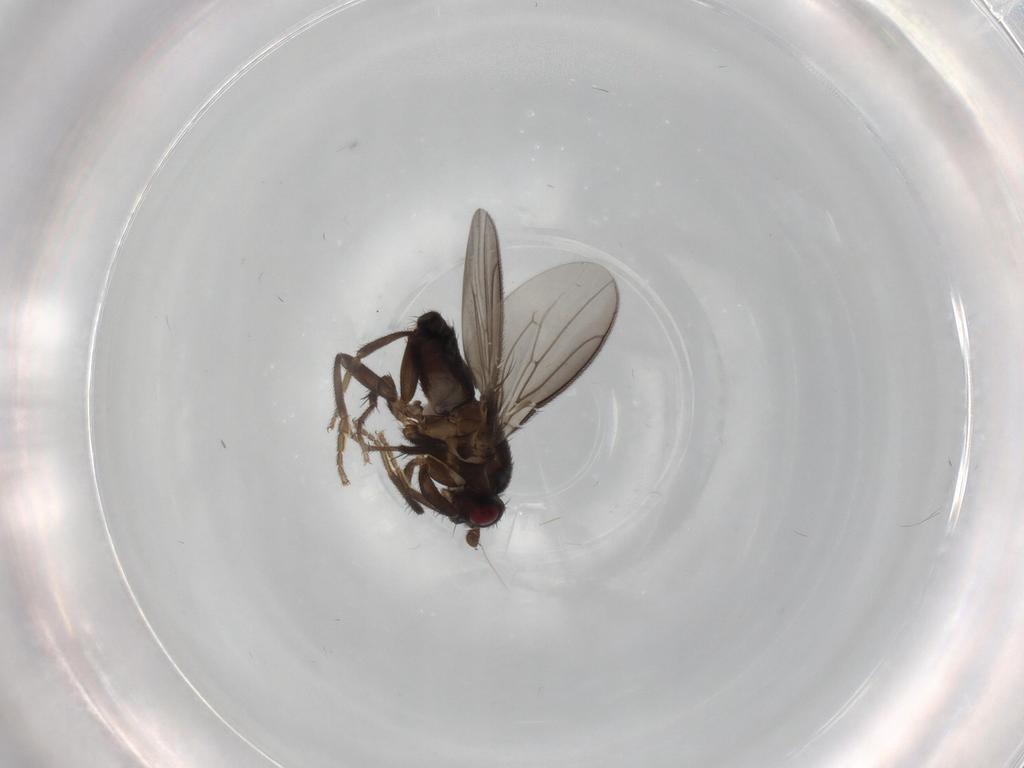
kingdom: Animalia
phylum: Arthropoda
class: Insecta
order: Diptera
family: Sphaeroceridae
